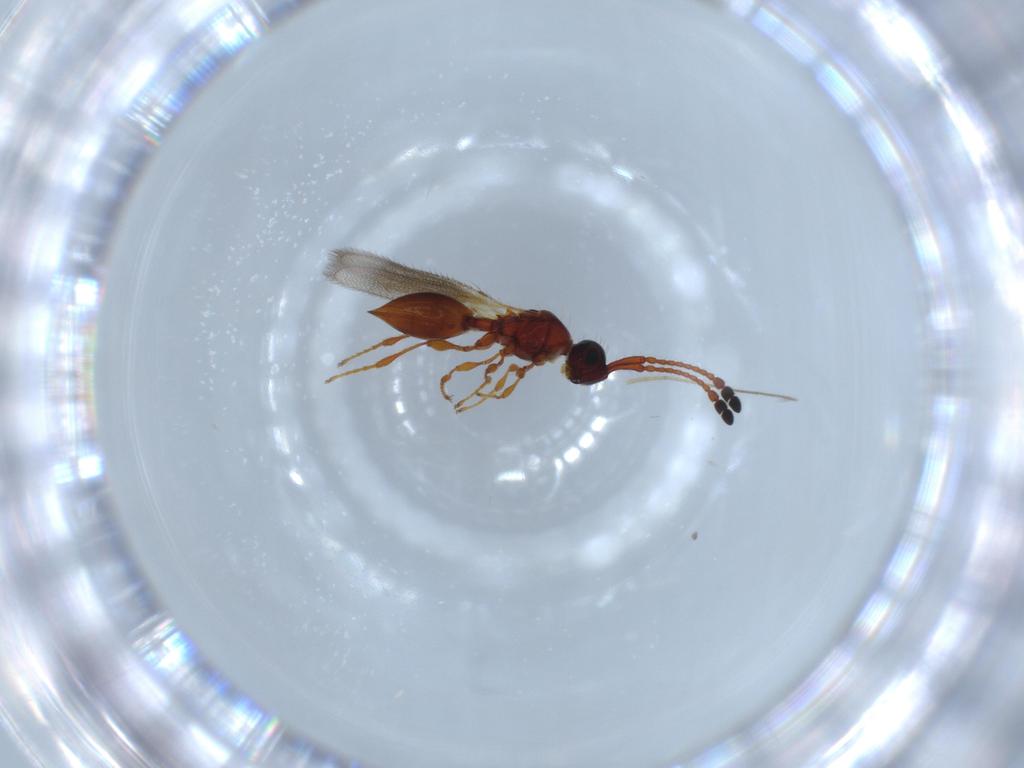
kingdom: Animalia
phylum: Arthropoda
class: Insecta
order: Hymenoptera
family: Diapriidae
